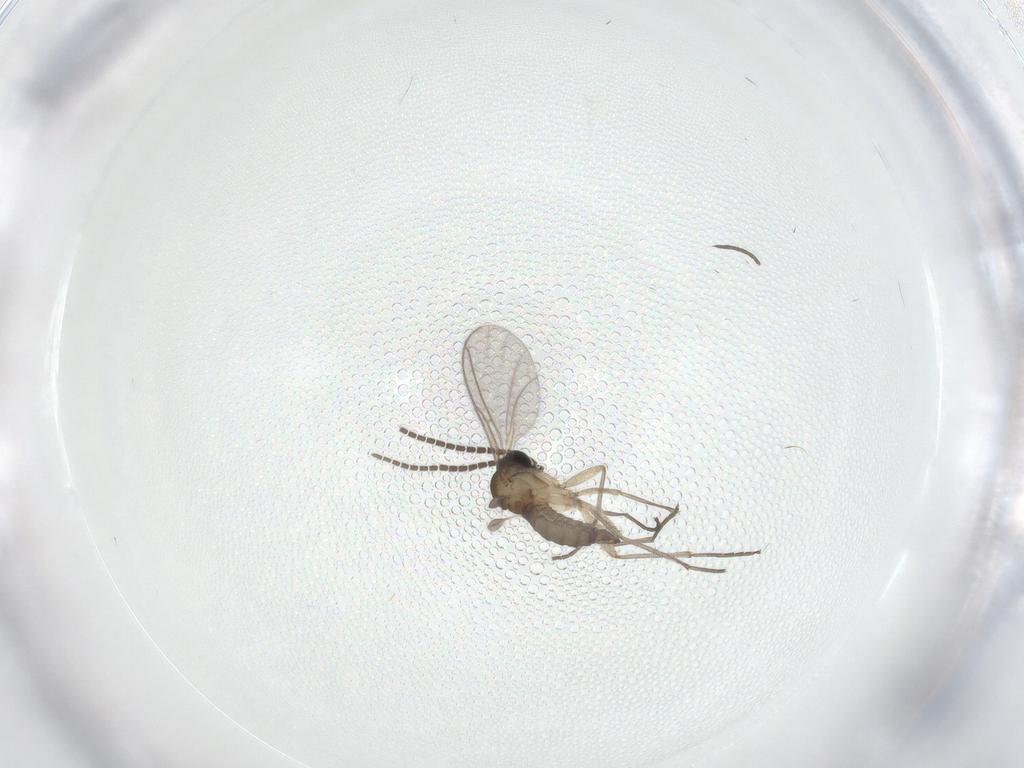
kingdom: Animalia
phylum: Arthropoda
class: Insecta
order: Diptera
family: Sciaridae
